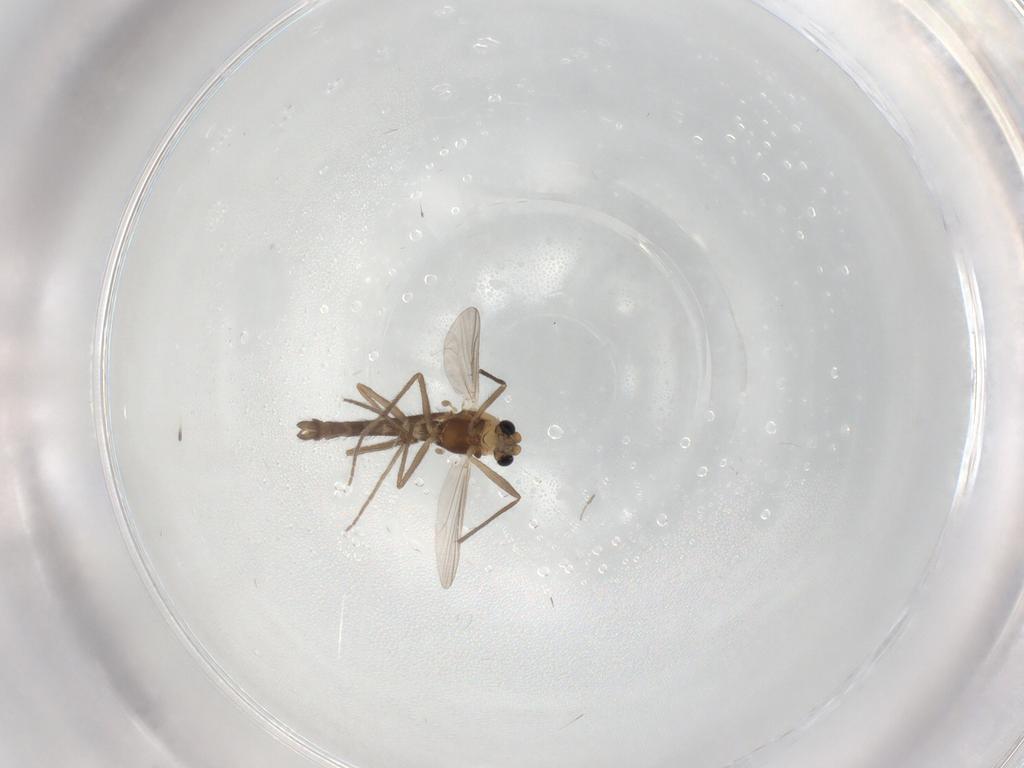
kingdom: Animalia
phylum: Arthropoda
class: Insecta
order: Diptera
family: Chironomidae
